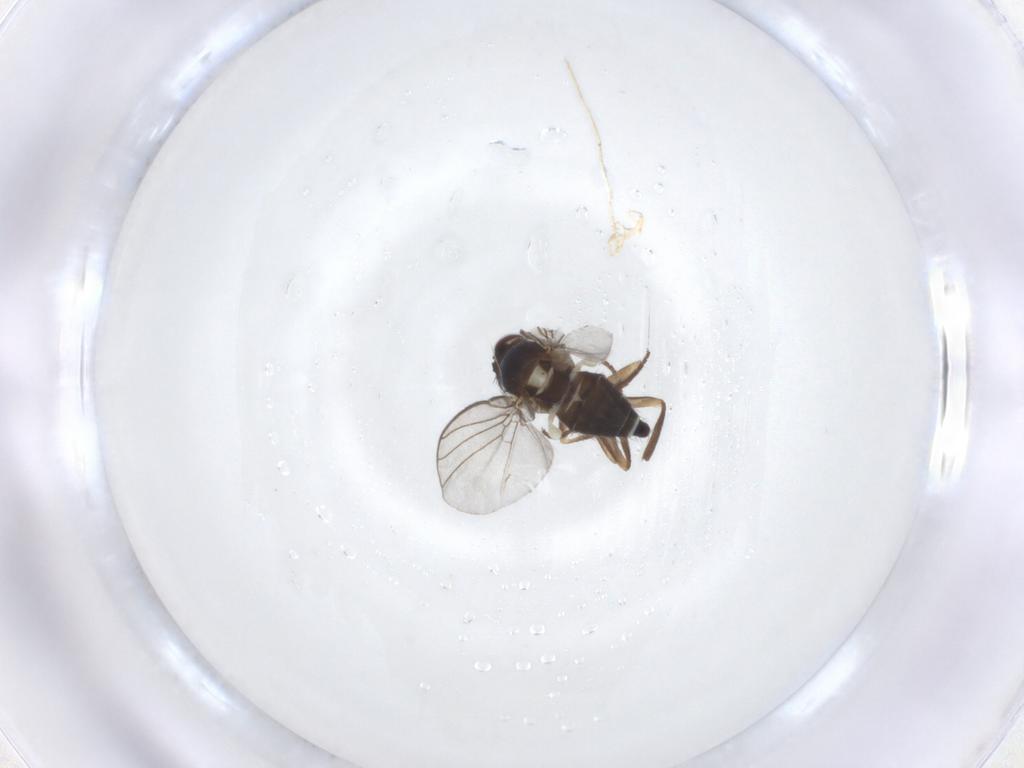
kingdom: Animalia
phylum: Arthropoda
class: Insecta
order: Diptera
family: Agromyzidae
